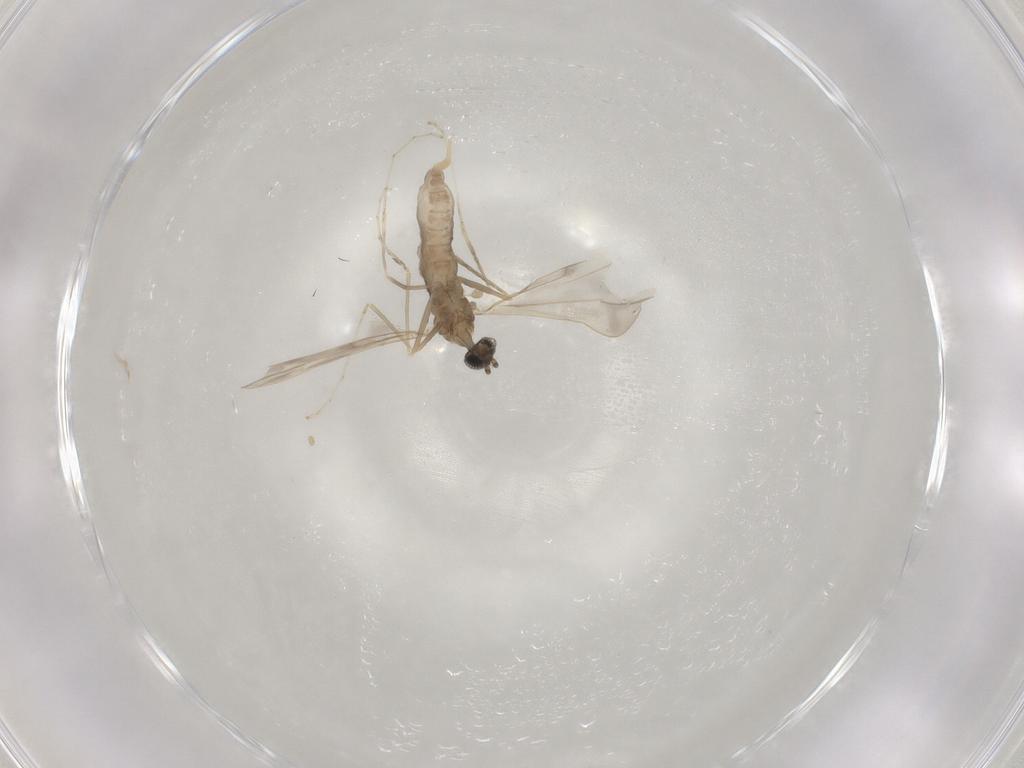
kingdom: Animalia
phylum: Arthropoda
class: Insecta
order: Diptera
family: Cecidomyiidae
